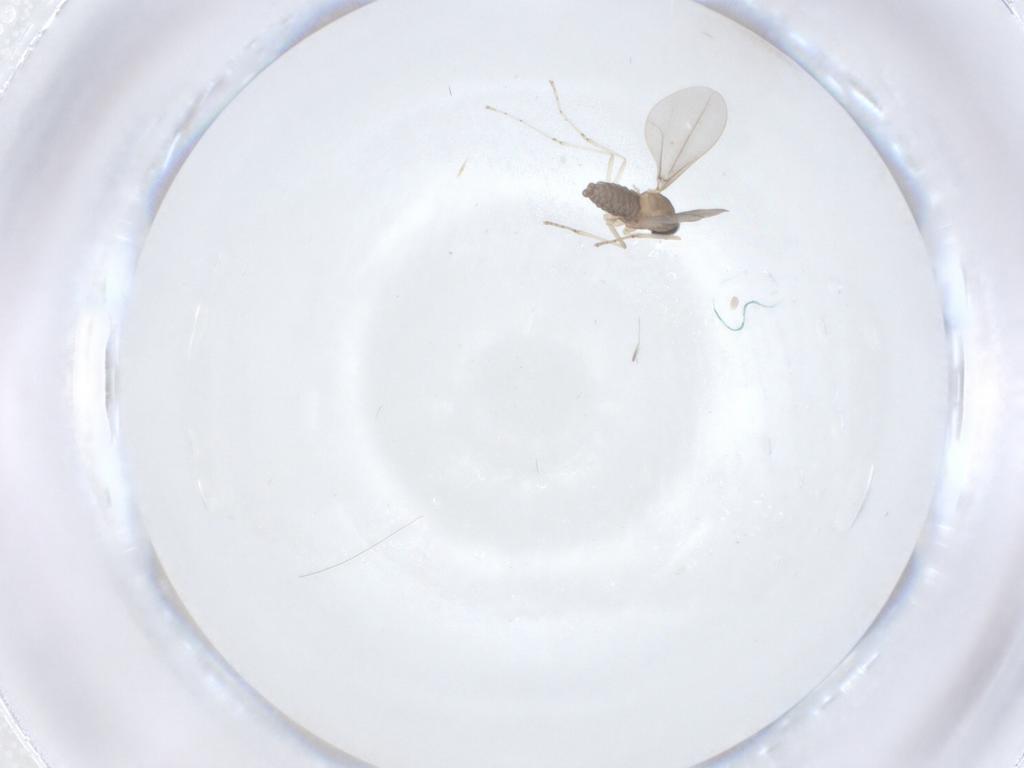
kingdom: Animalia
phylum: Arthropoda
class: Insecta
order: Diptera
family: Cecidomyiidae
